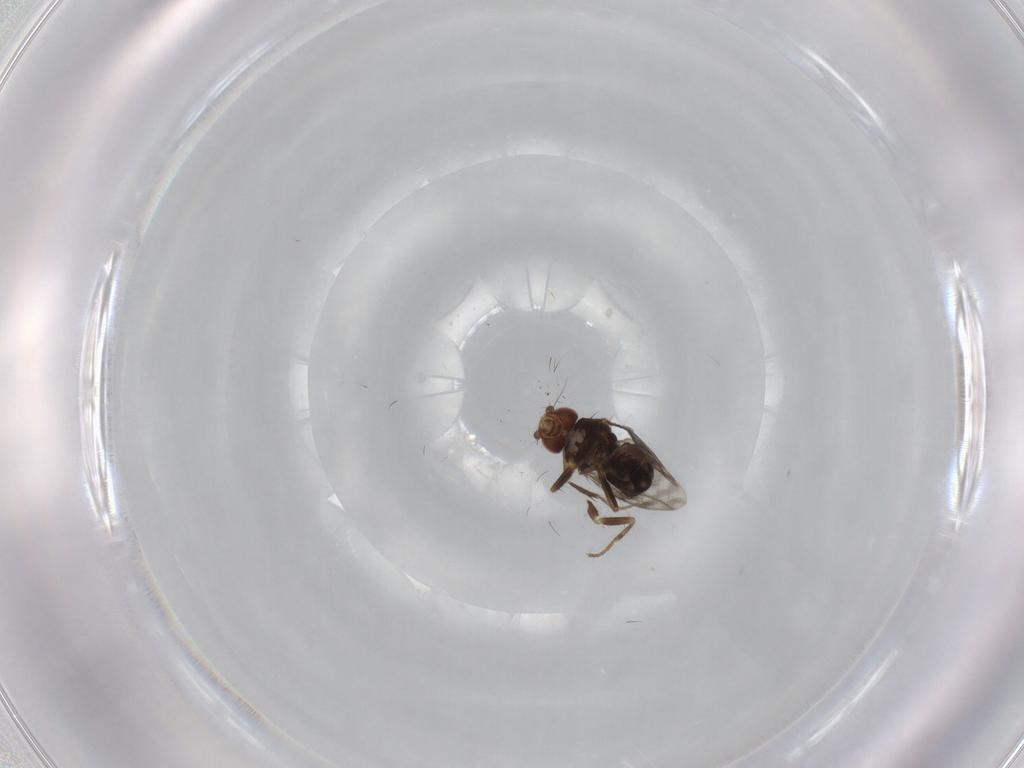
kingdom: Animalia
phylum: Arthropoda
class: Insecta
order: Diptera
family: Sphaeroceridae
